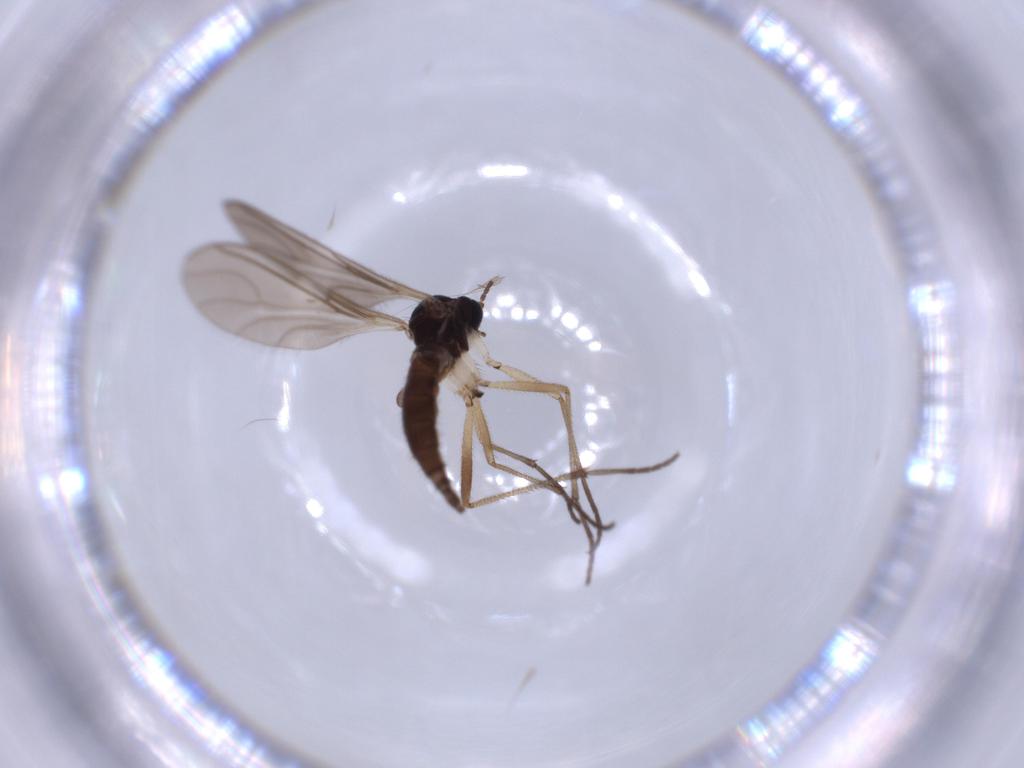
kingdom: Animalia
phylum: Arthropoda
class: Insecta
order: Diptera
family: Sciaridae
